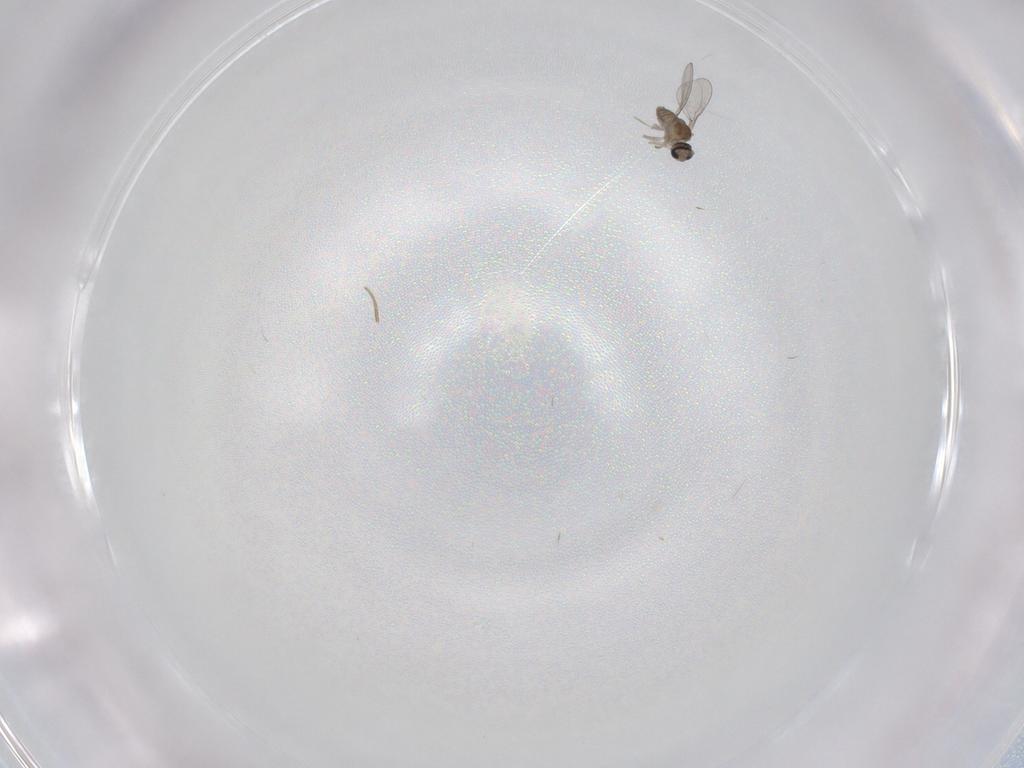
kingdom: Animalia
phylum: Arthropoda
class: Insecta
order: Diptera
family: Cecidomyiidae
